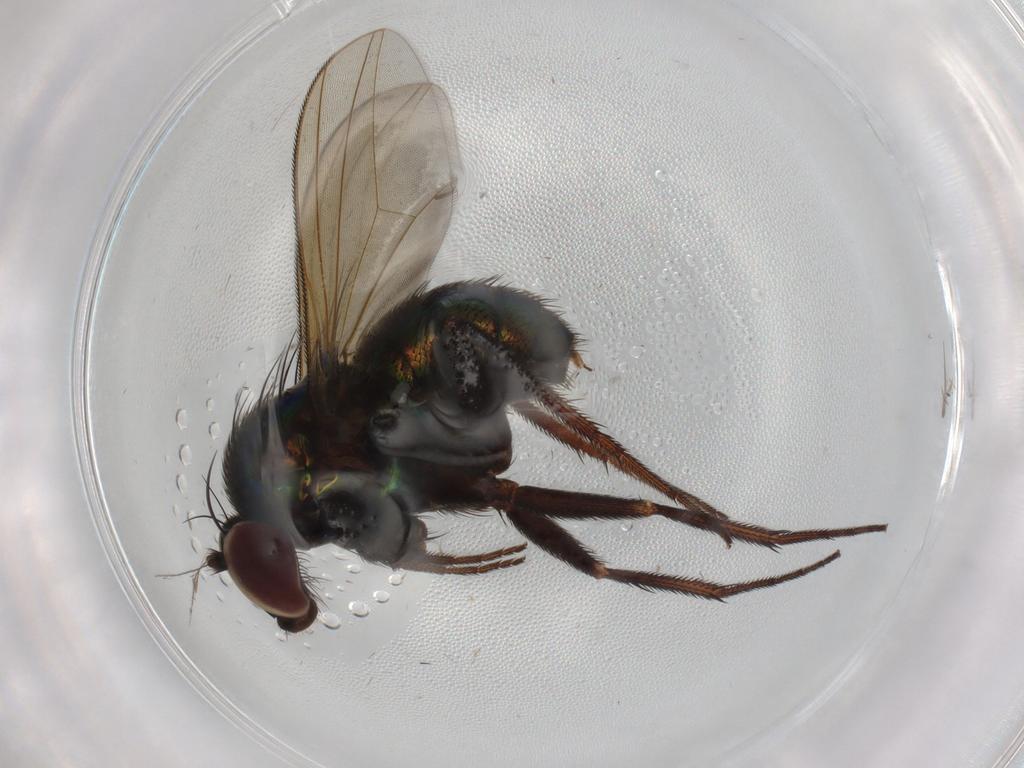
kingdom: Animalia
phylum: Arthropoda
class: Insecta
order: Diptera
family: Dolichopodidae
